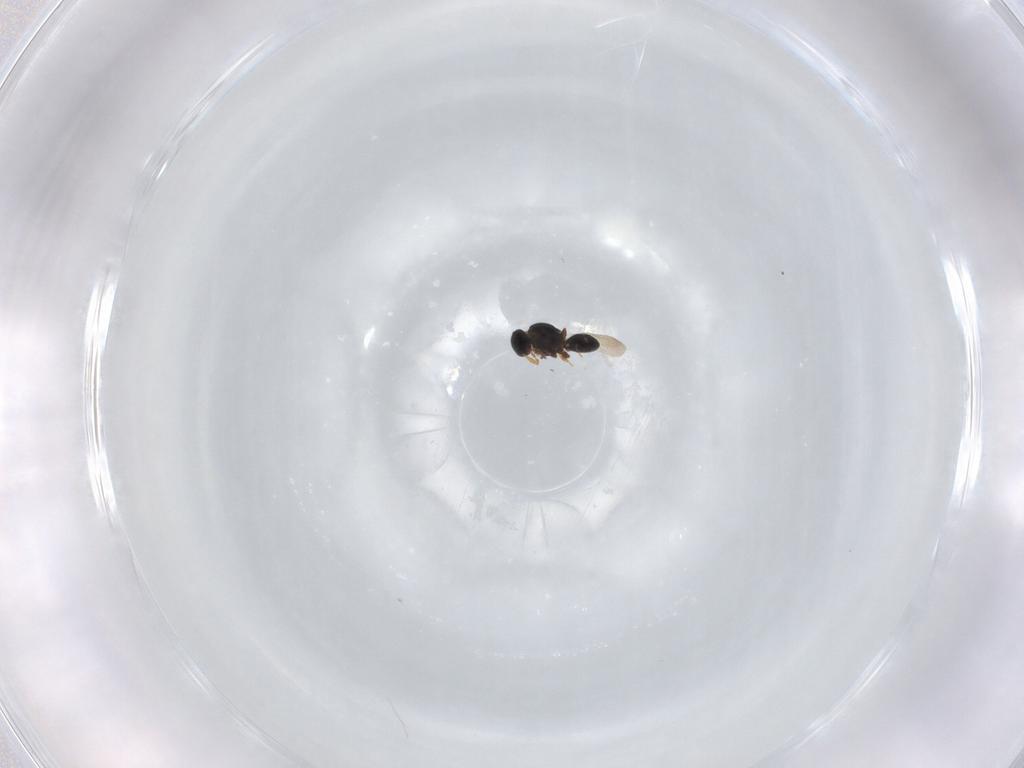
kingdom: Animalia
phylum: Arthropoda
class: Insecta
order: Hymenoptera
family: Platygastridae
